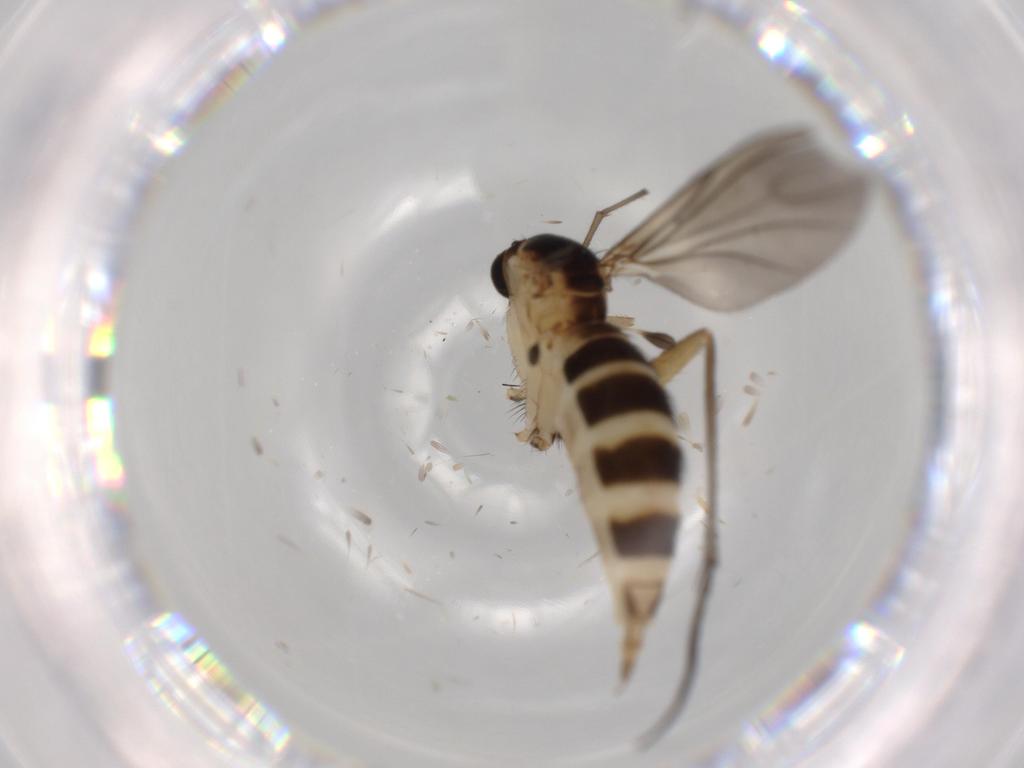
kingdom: Animalia
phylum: Arthropoda
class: Insecta
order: Diptera
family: Sciaridae
